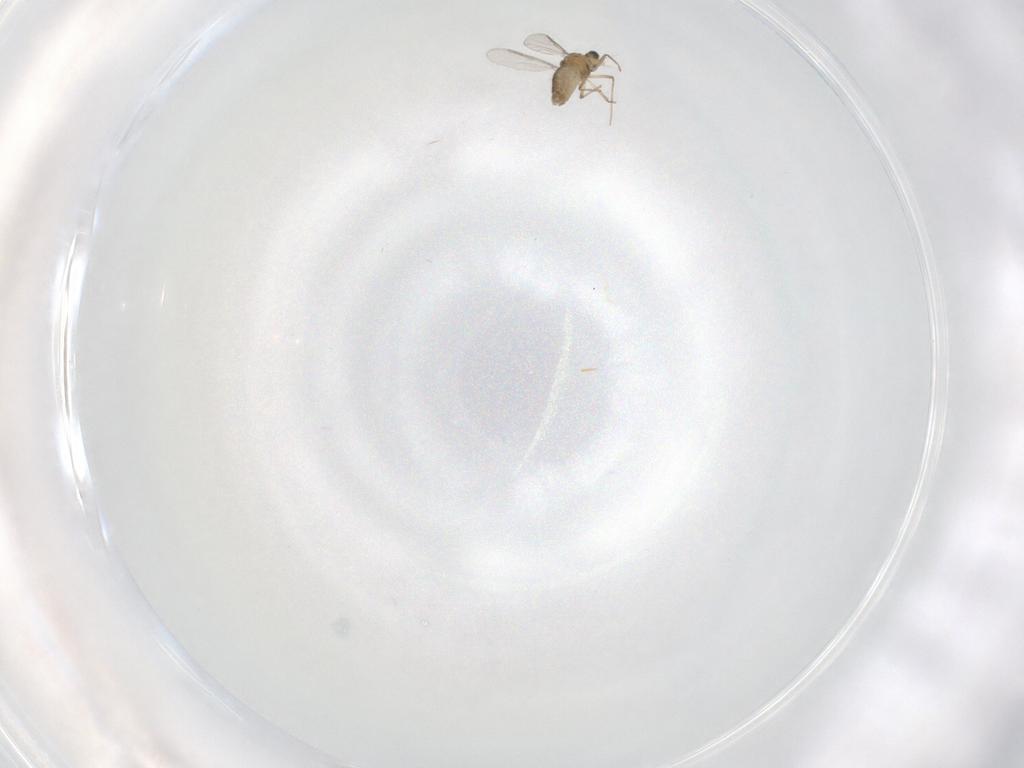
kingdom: Animalia
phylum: Arthropoda
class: Insecta
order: Diptera
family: Chironomidae
